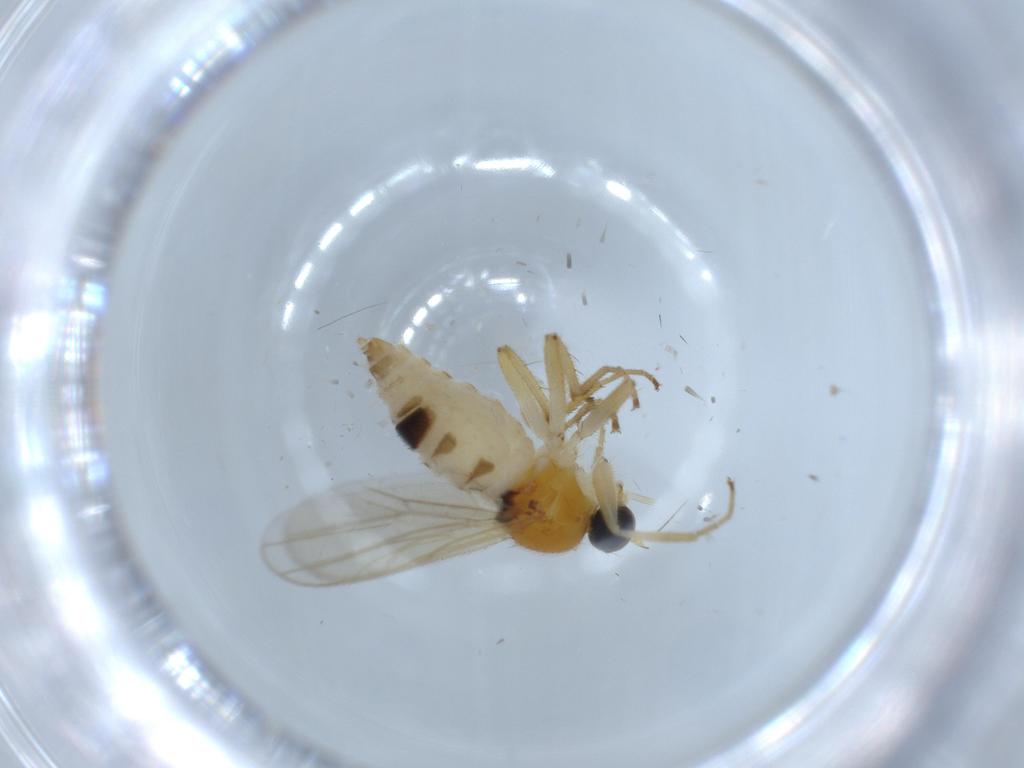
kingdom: Animalia
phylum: Arthropoda
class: Insecta
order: Diptera
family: Hybotidae
